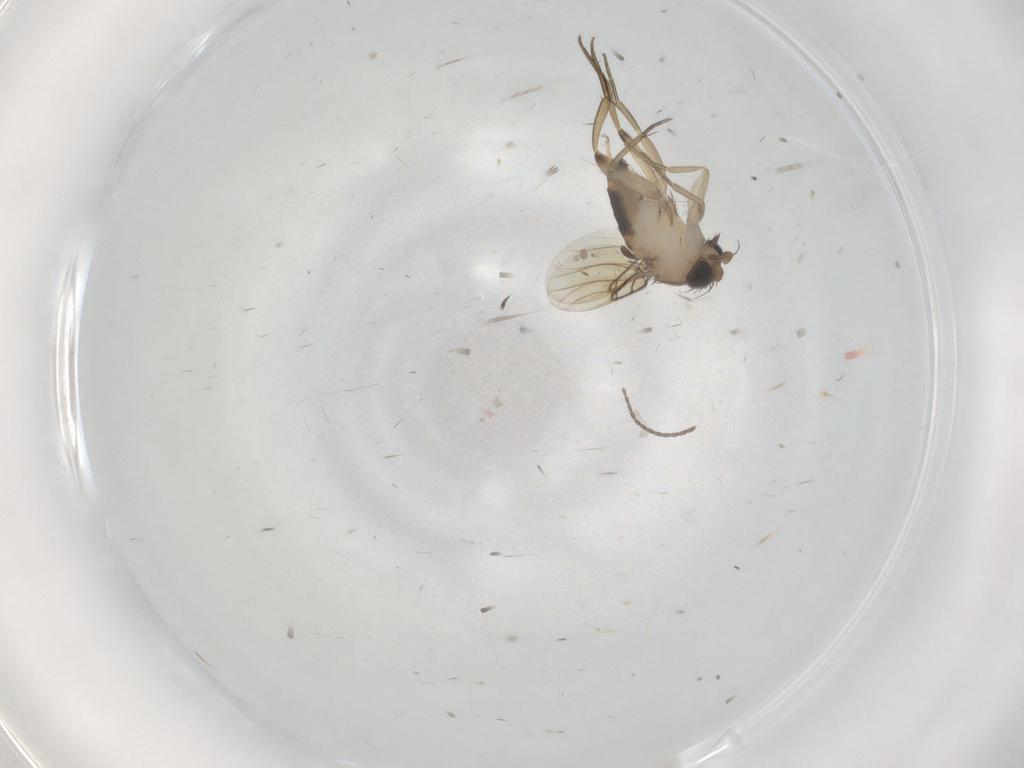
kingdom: Animalia
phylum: Arthropoda
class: Insecta
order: Diptera
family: Cecidomyiidae
